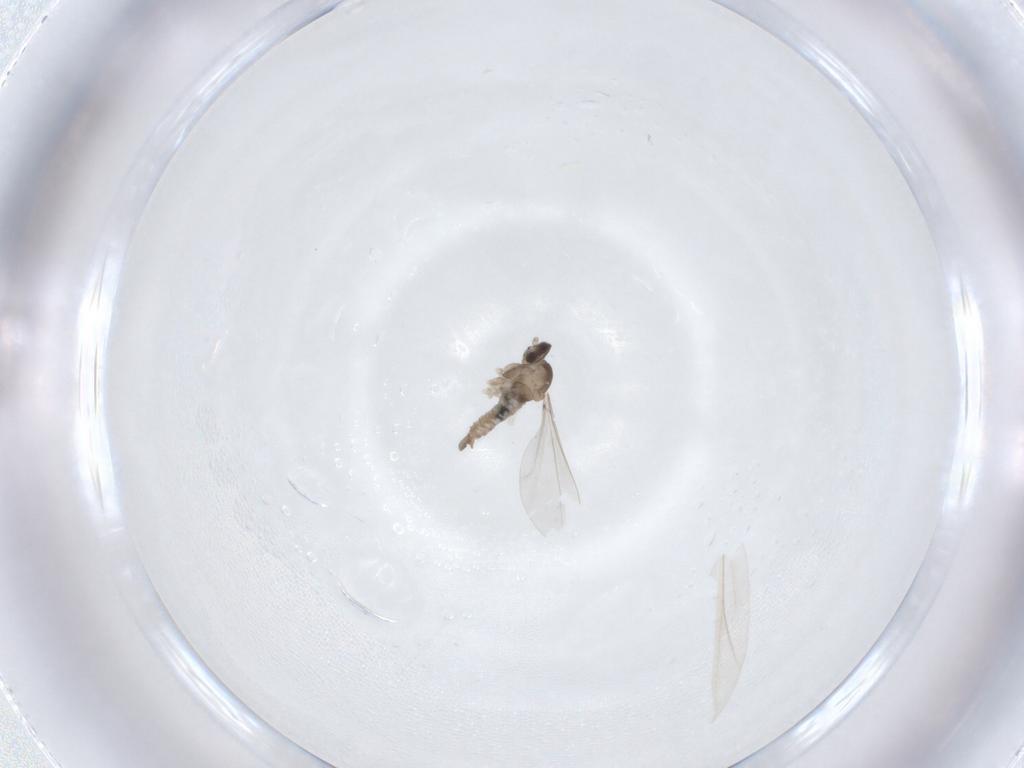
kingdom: Animalia
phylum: Arthropoda
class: Insecta
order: Diptera
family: Cecidomyiidae
